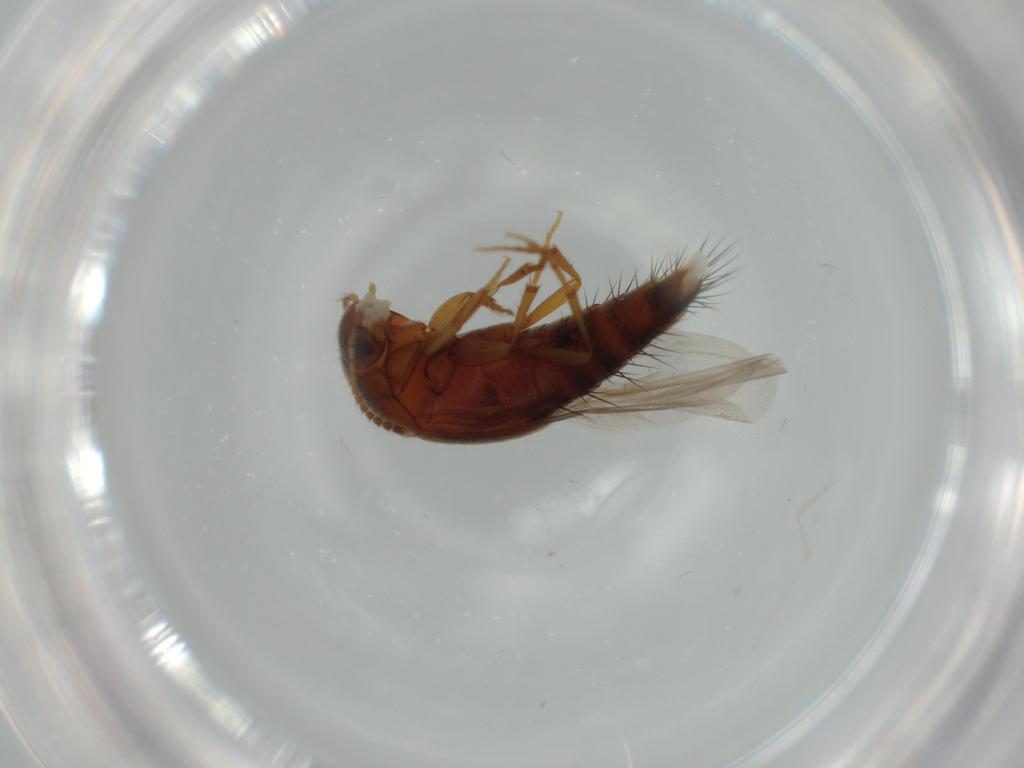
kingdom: Animalia
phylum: Arthropoda
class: Insecta
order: Coleoptera
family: Staphylinidae
